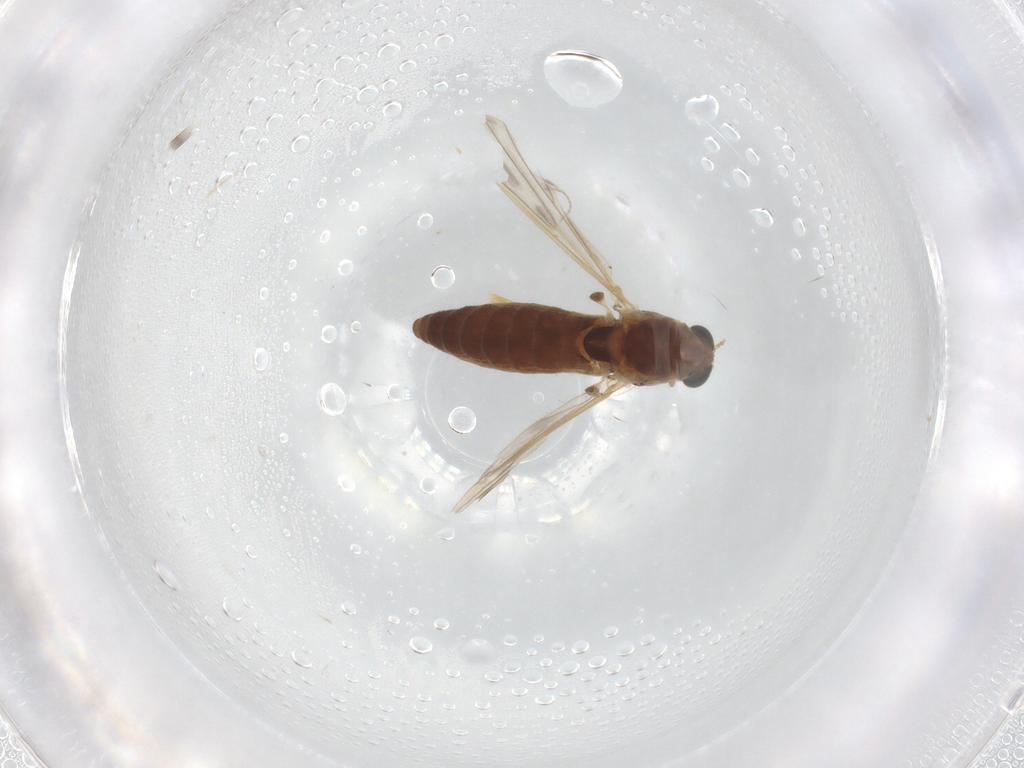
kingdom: Animalia
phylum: Arthropoda
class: Insecta
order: Diptera
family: Chironomidae
